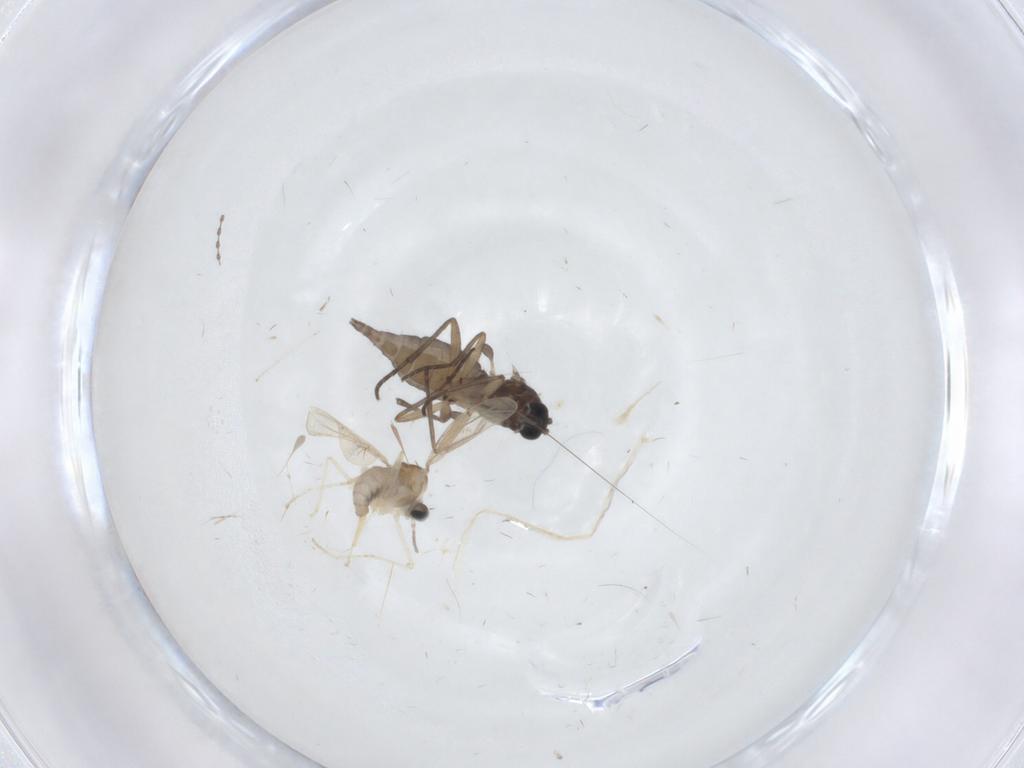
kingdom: Animalia
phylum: Arthropoda
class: Insecta
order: Diptera
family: Cecidomyiidae
